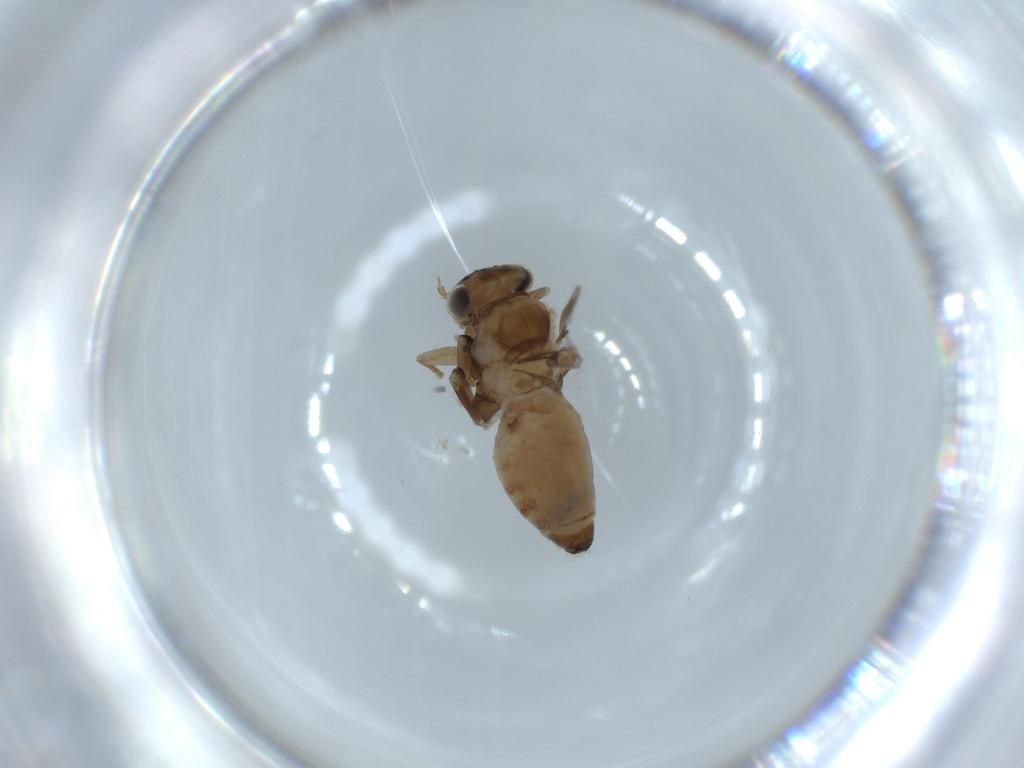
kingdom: Animalia
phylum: Arthropoda
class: Insecta
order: Psocodea
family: Lepidopsocidae
